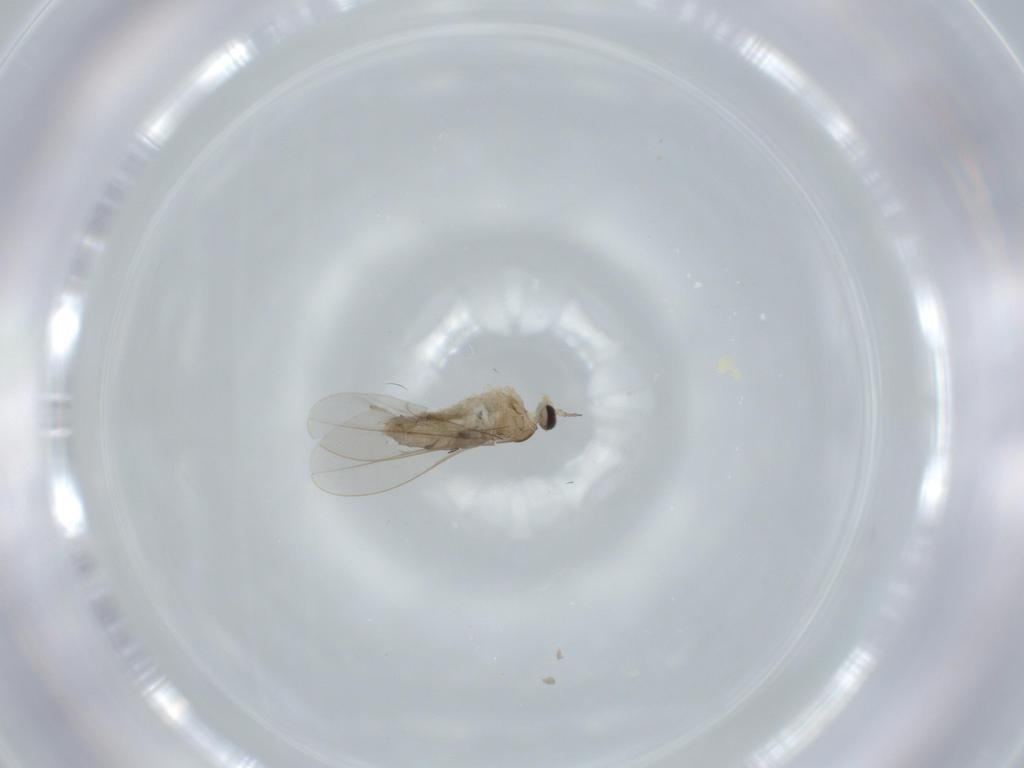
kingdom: Animalia
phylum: Arthropoda
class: Insecta
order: Diptera
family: Cecidomyiidae
